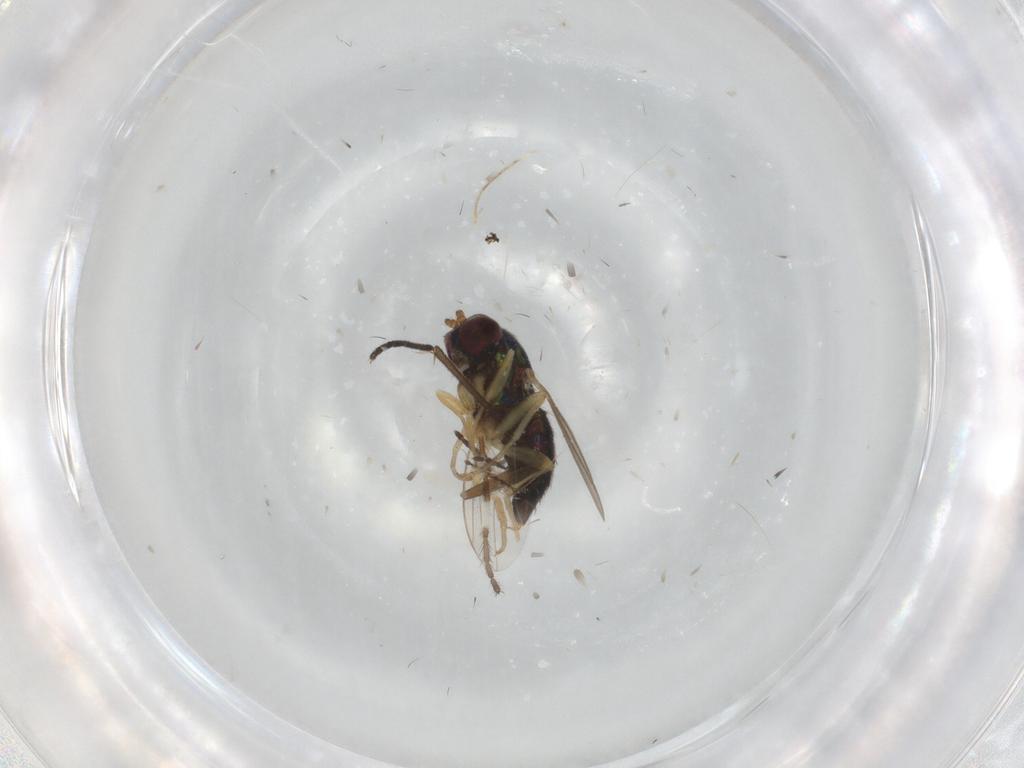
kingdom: Animalia
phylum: Arthropoda
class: Insecta
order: Diptera
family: Dolichopodidae
